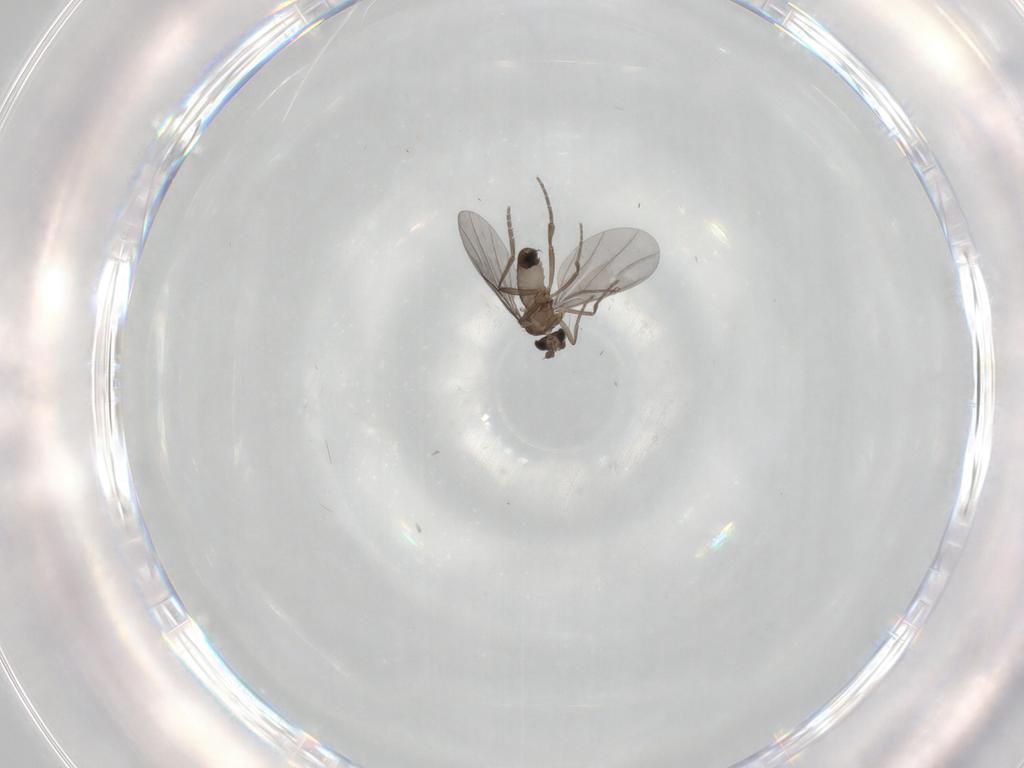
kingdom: Animalia
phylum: Arthropoda
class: Insecta
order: Diptera
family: Phoridae
